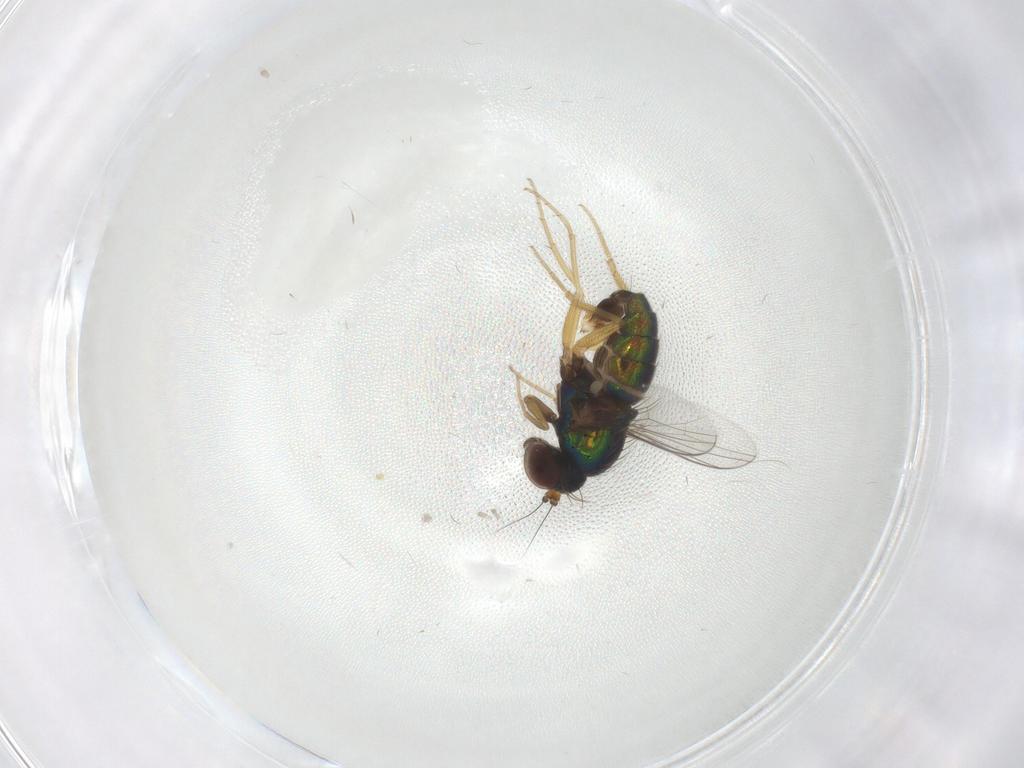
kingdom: Animalia
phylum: Arthropoda
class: Insecta
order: Diptera
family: Dolichopodidae
